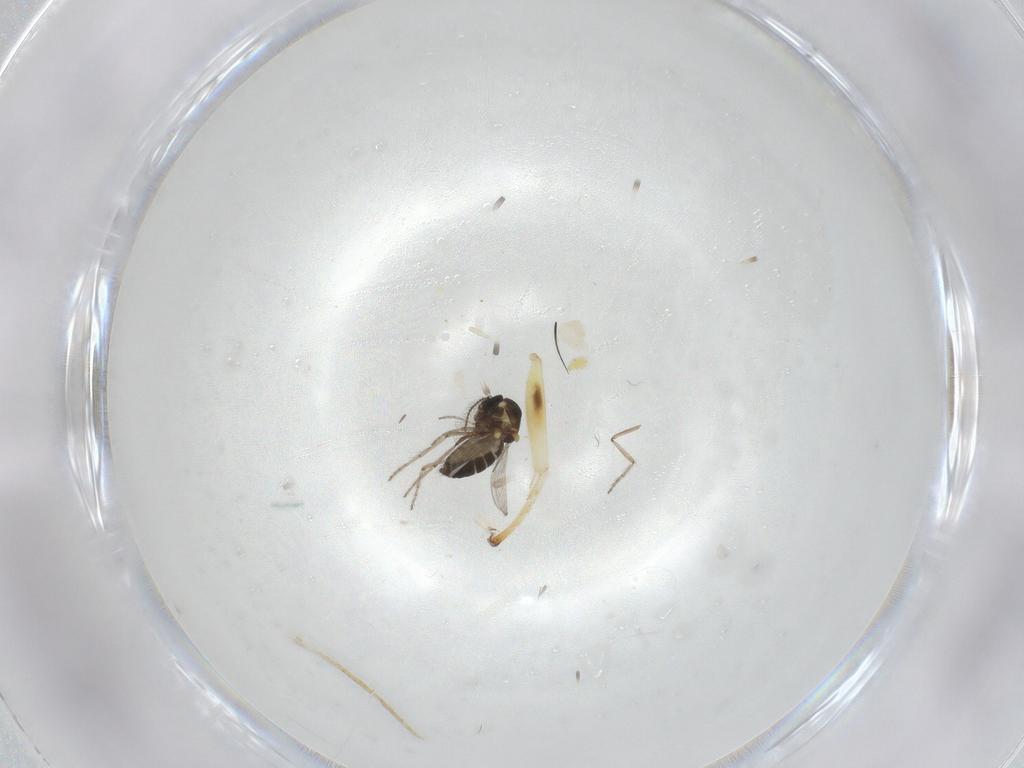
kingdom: Animalia
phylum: Arthropoda
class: Insecta
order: Diptera
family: Ceratopogonidae
